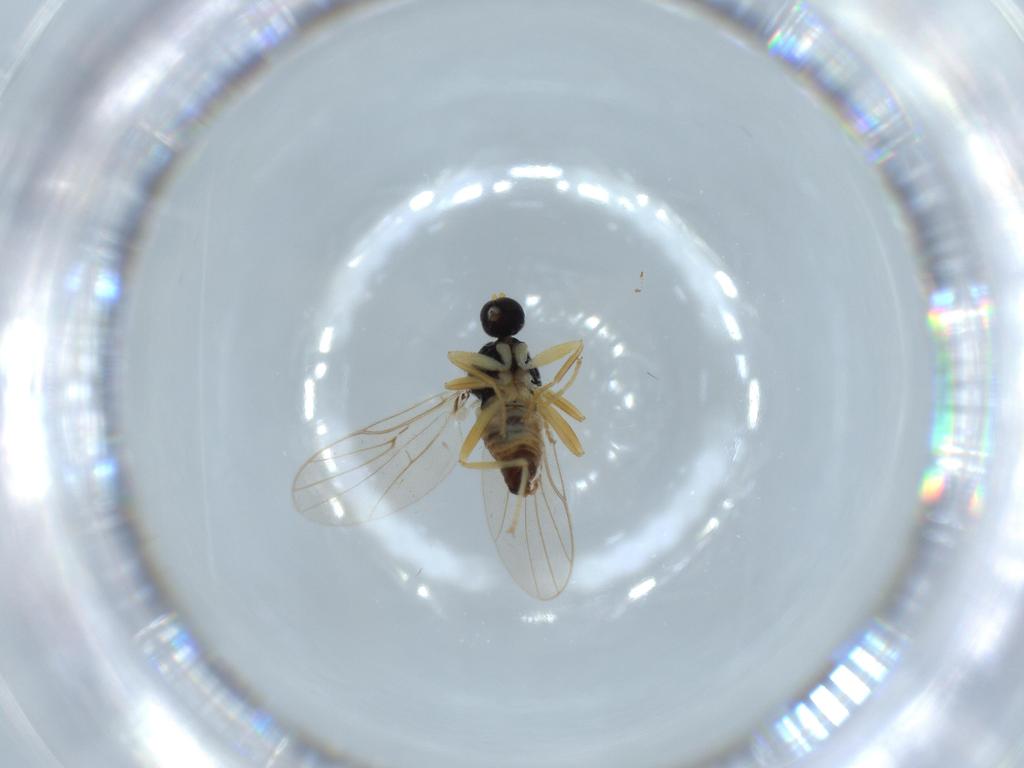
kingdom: Animalia
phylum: Arthropoda
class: Insecta
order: Diptera
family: Hybotidae
